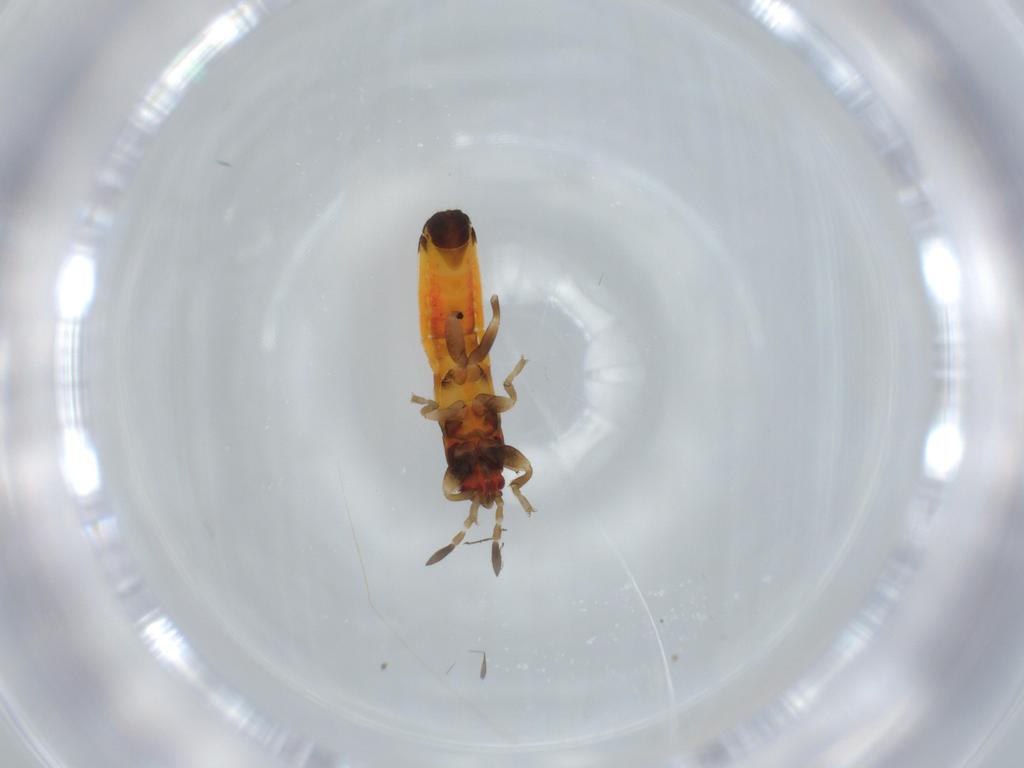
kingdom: Animalia
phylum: Arthropoda
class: Insecta
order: Hemiptera
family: Blissidae
